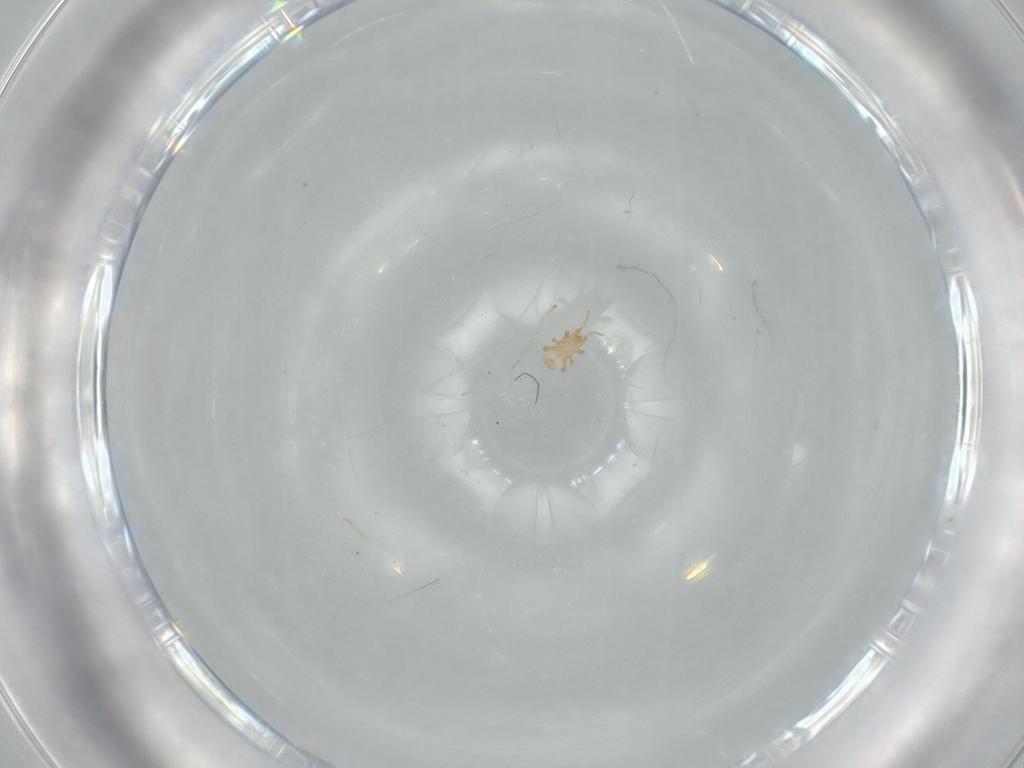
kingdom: Animalia
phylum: Arthropoda
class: Arachnida
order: Mesostigmata
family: Ascidae
